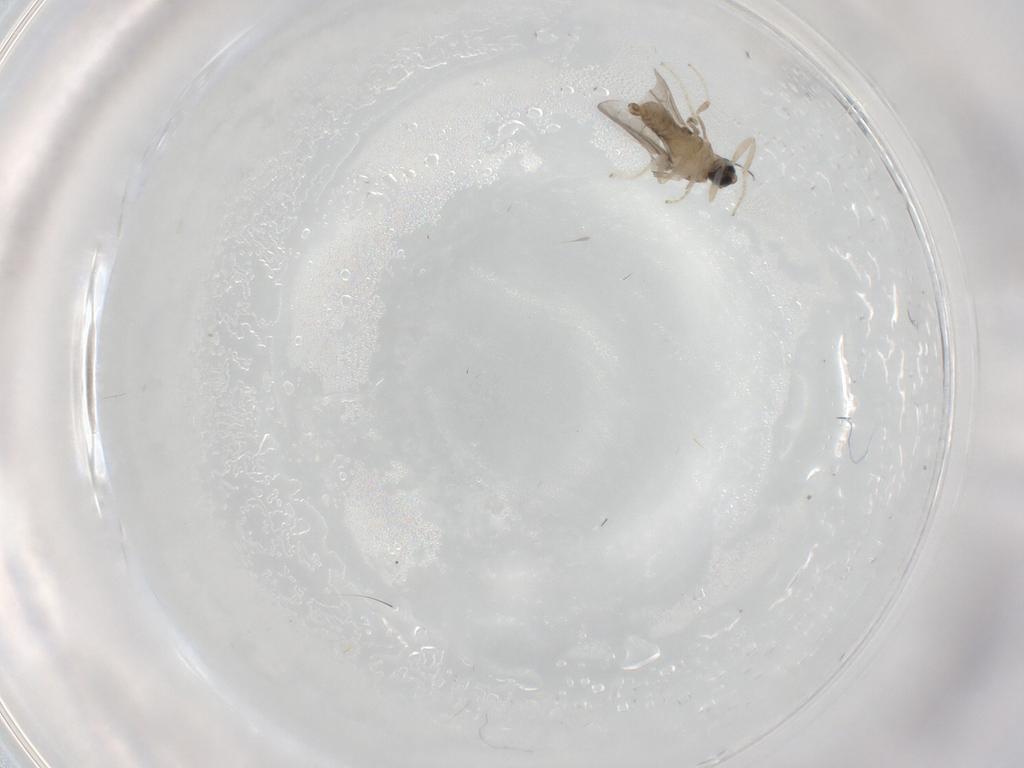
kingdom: Animalia
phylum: Arthropoda
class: Insecta
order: Diptera
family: Cecidomyiidae
